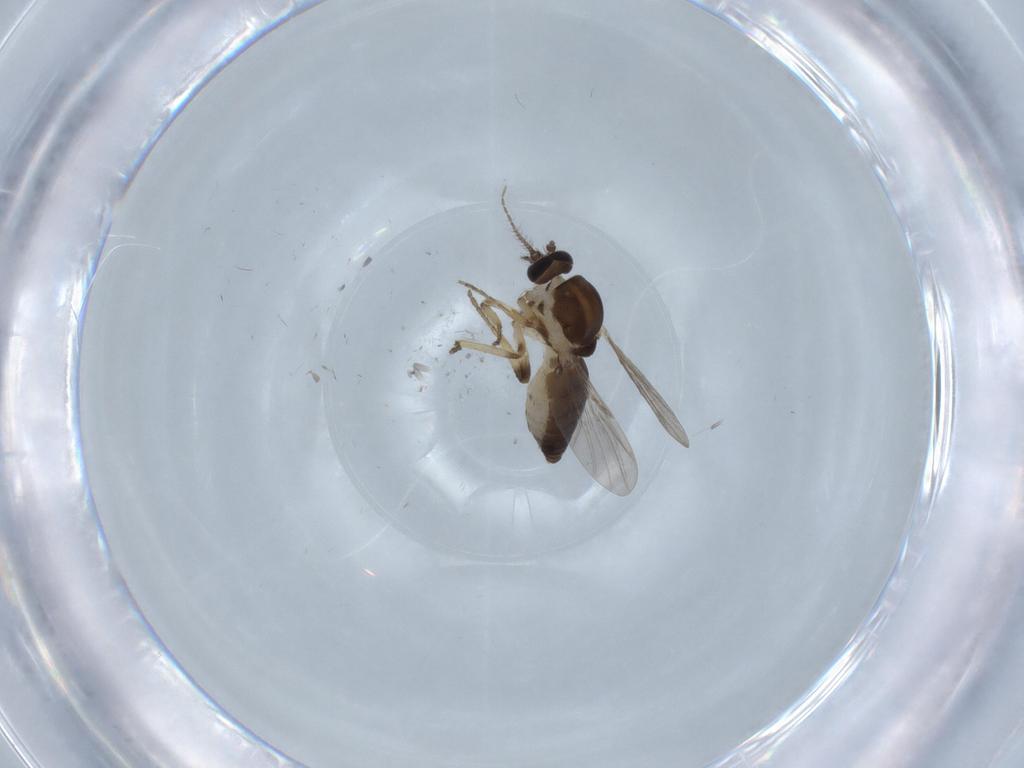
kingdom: Animalia
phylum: Arthropoda
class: Insecta
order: Diptera
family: Ceratopogonidae
